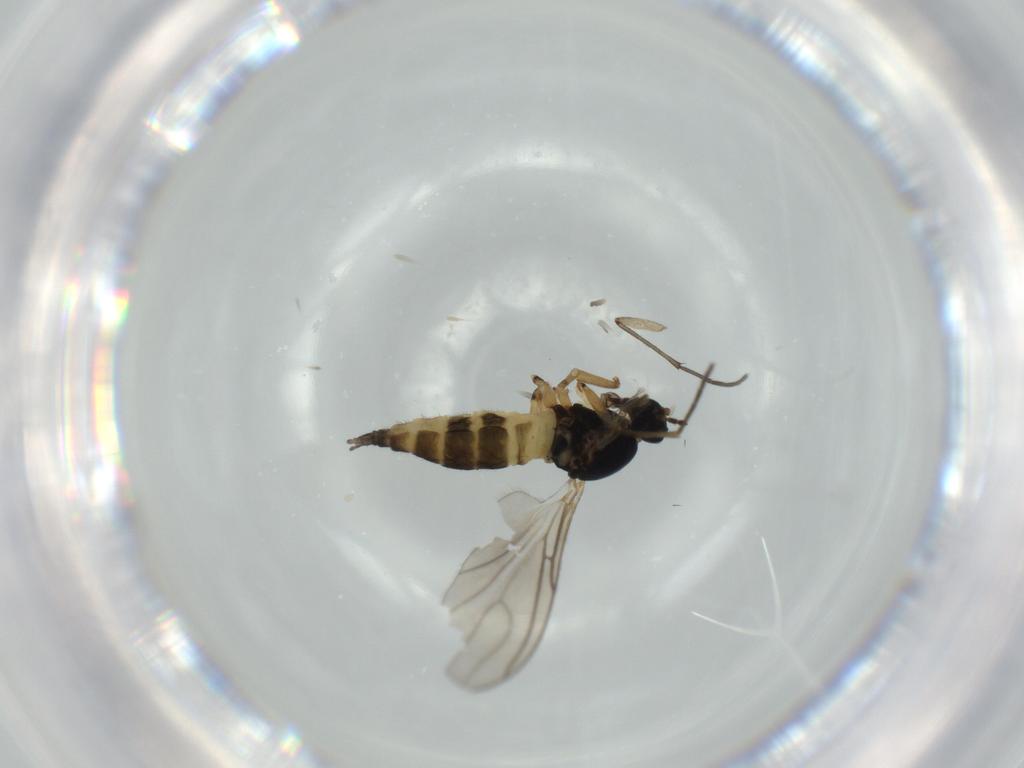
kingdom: Animalia
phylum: Arthropoda
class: Insecta
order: Diptera
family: Sciaridae
